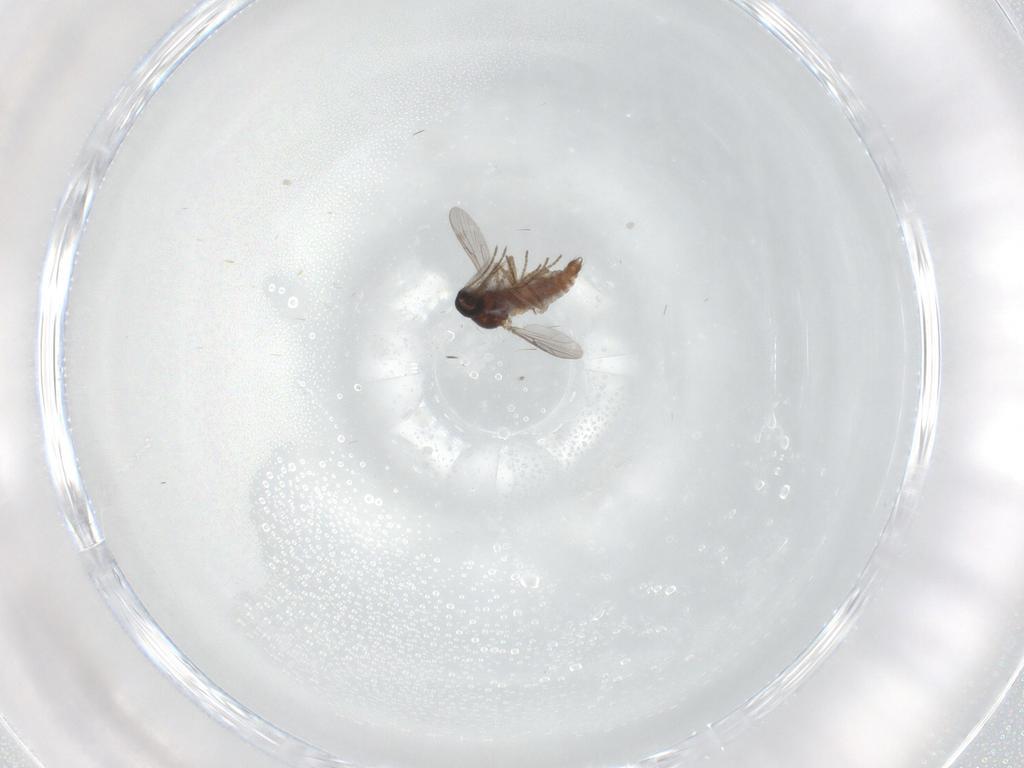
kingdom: Animalia
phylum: Arthropoda
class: Insecta
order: Diptera
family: Ceratopogonidae
